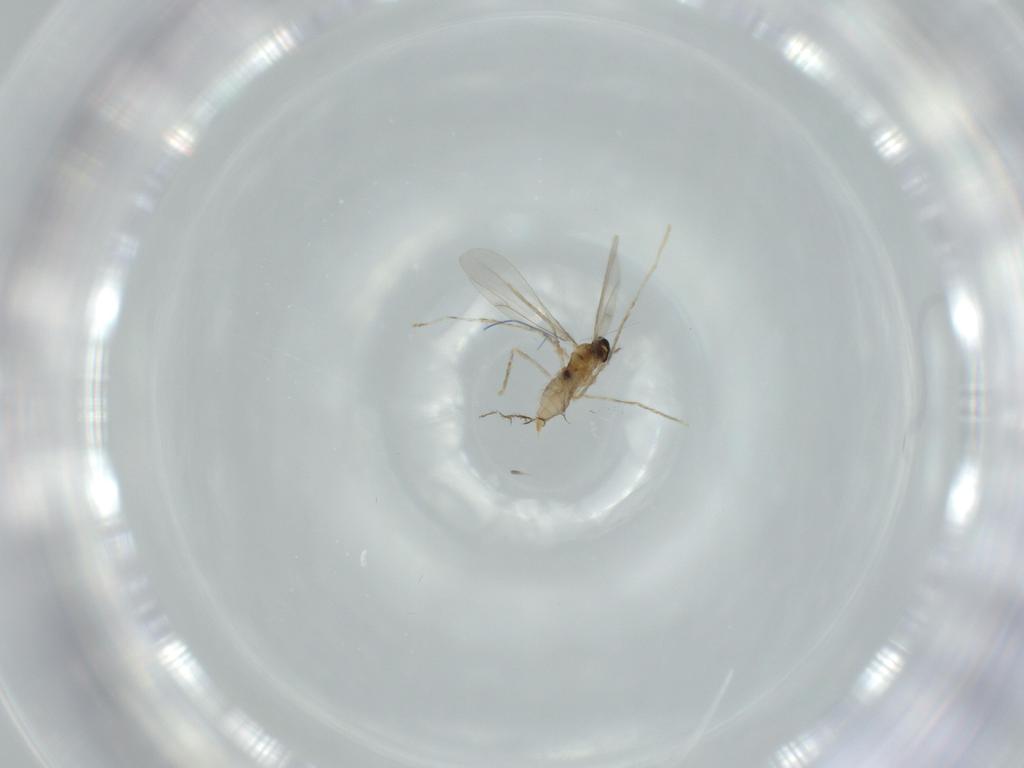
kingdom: Animalia
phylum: Arthropoda
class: Insecta
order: Diptera
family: Cecidomyiidae
